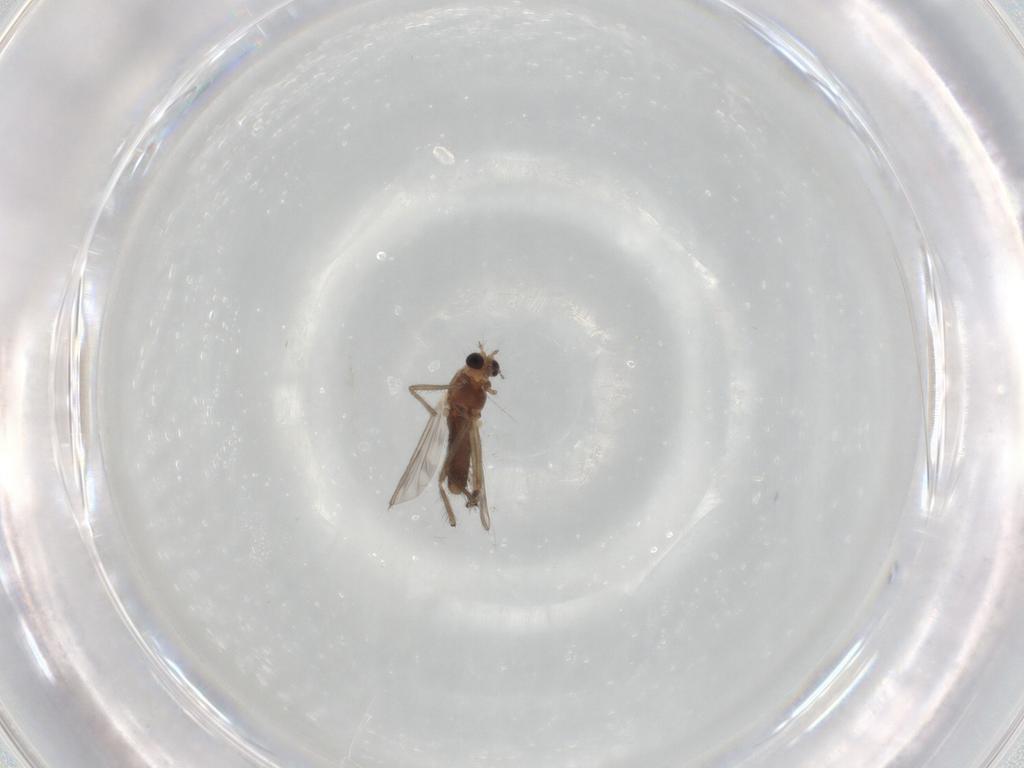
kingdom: Animalia
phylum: Arthropoda
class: Insecta
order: Diptera
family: Chironomidae
